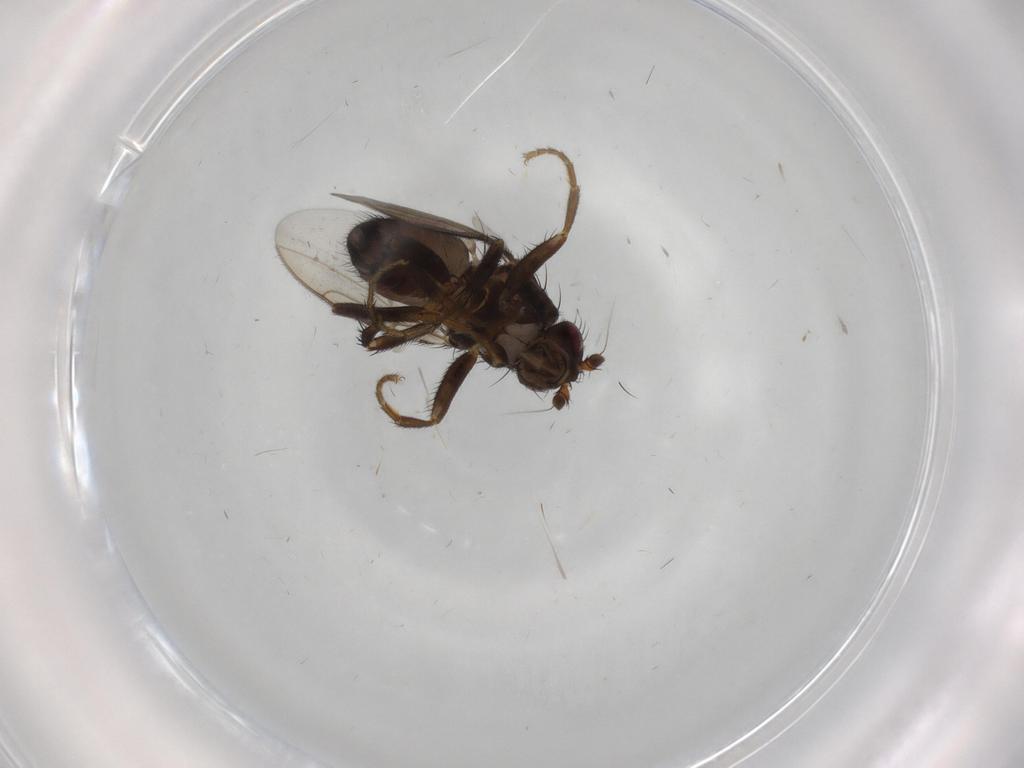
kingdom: Animalia
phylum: Arthropoda
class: Insecta
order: Diptera
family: Sphaeroceridae
